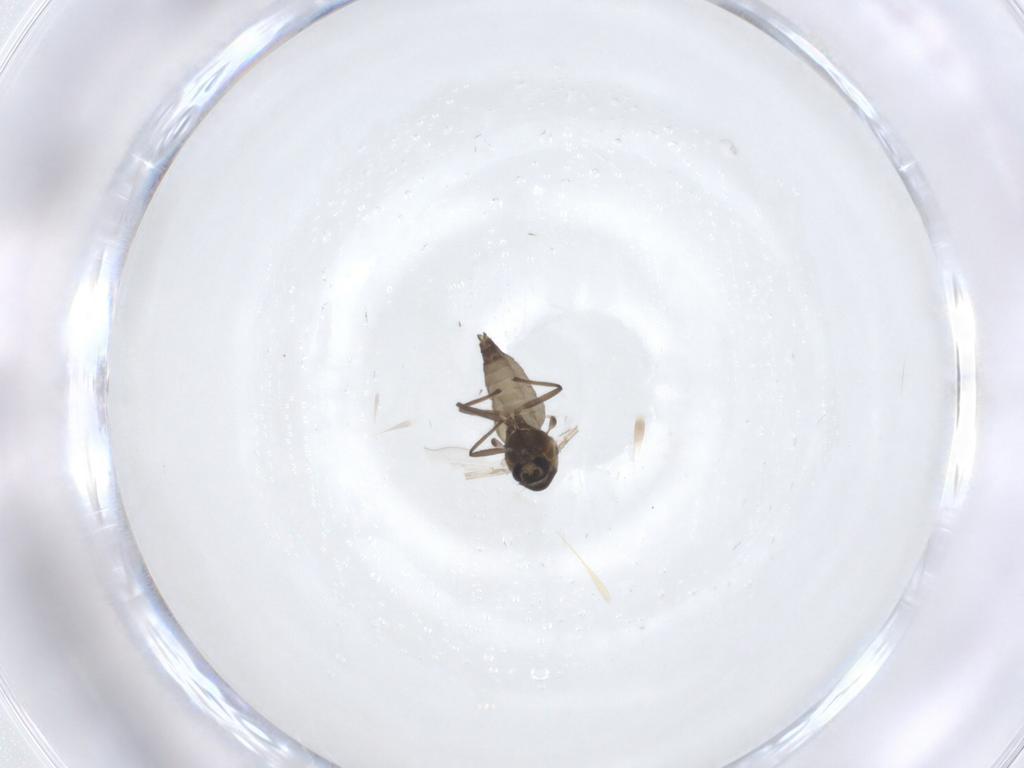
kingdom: Animalia
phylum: Arthropoda
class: Insecta
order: Diptera
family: Chironomidae
